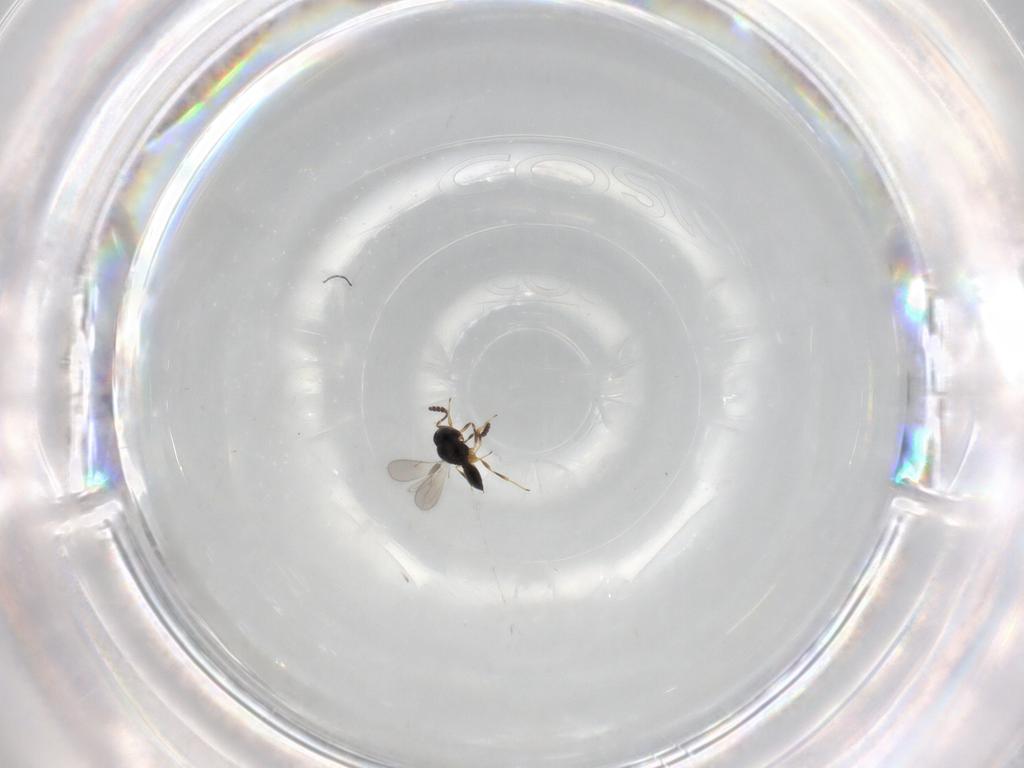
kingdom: Animalia
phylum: Arthropoda
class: Insecta
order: Hymenoptera
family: Scelionidae
